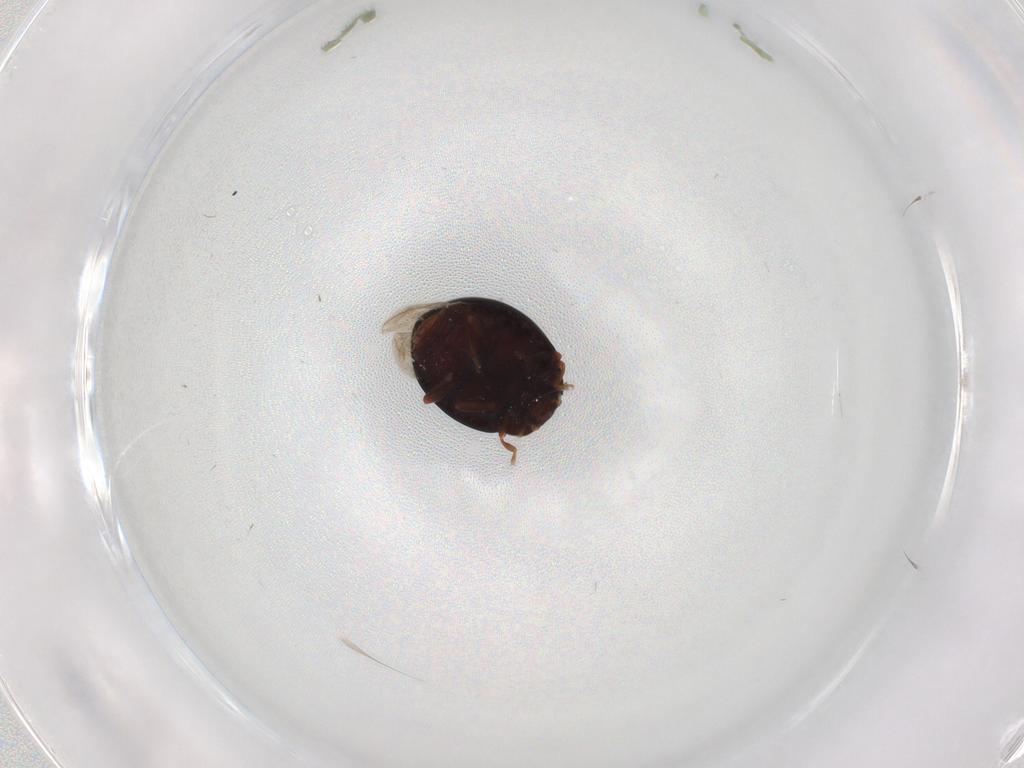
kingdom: Animalia
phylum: Arthropoda
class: Insecta
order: Coleoptera
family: Coccinellidae
